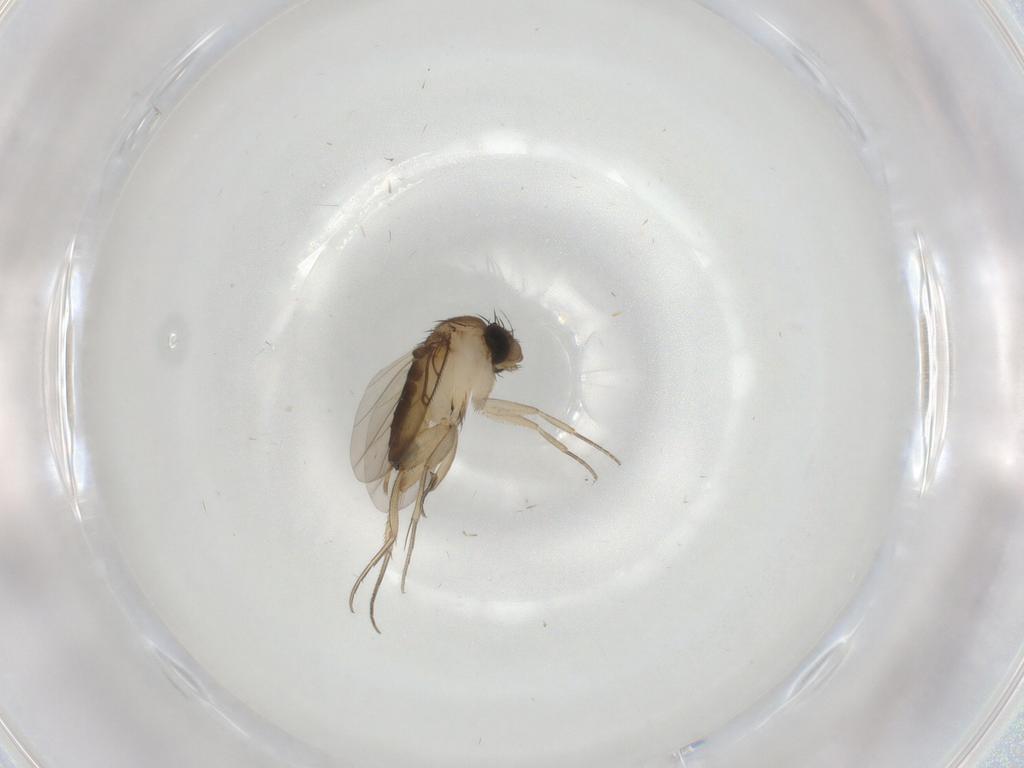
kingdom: Animalia
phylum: Arthropoda
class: Insecta
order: Diptera
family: Phoridae
